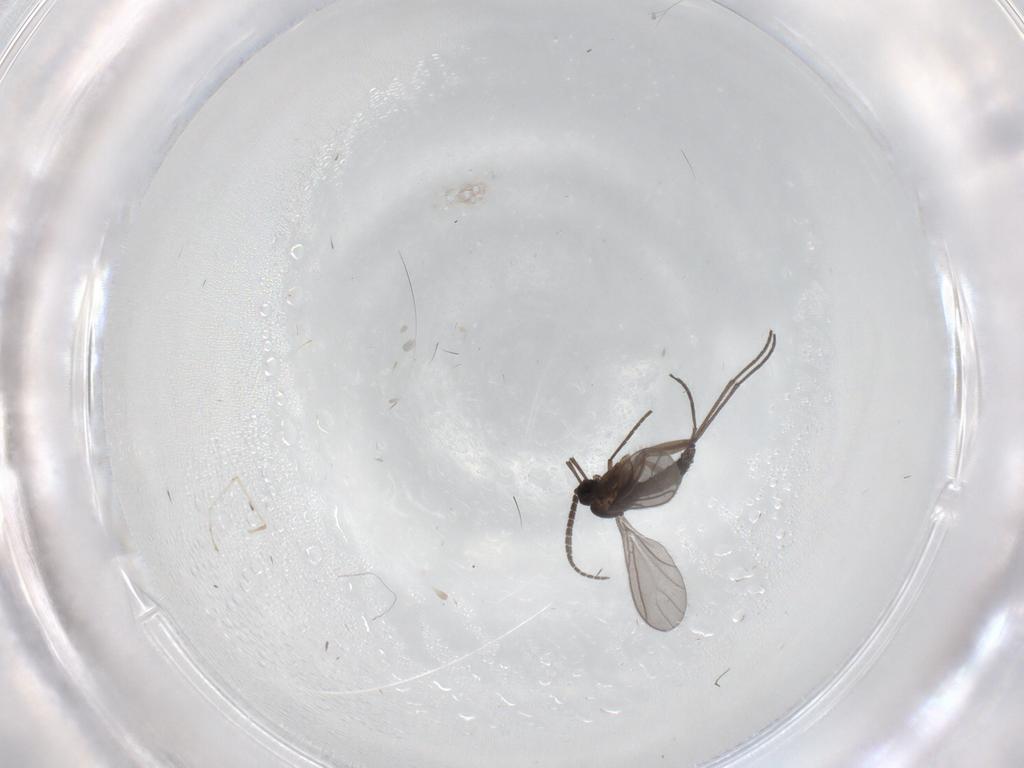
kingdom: Animalia
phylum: Arthropoda
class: Insecta
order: Diptera
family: Sciaridae
